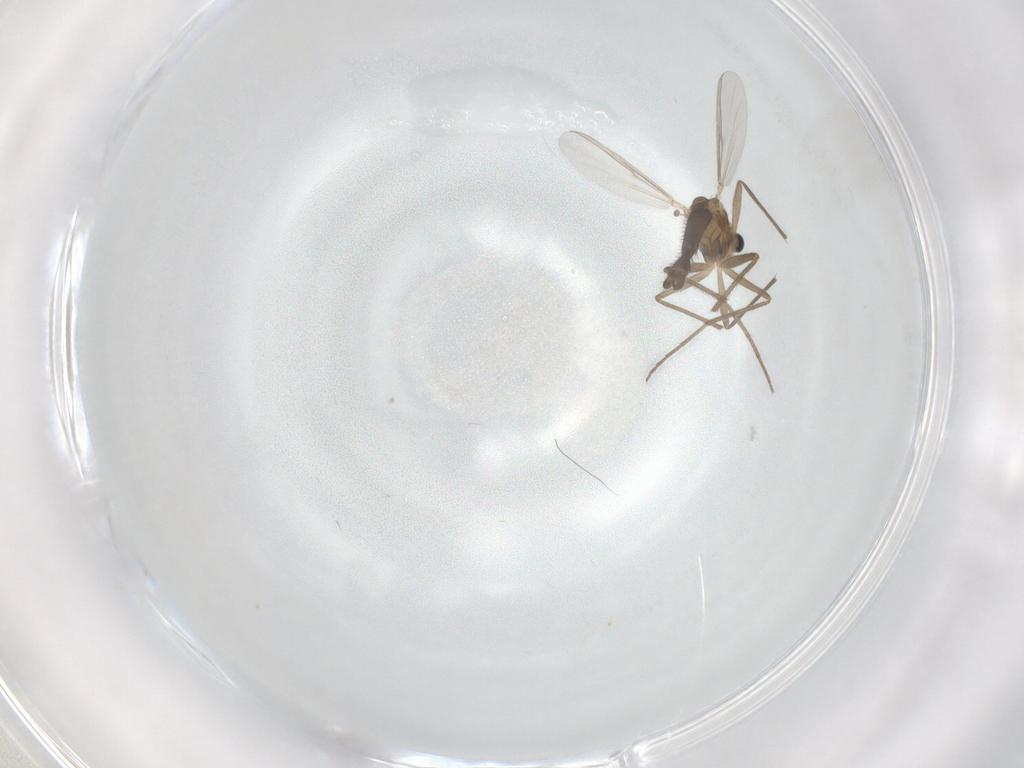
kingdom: Animalia
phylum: Arthropoda
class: Insecta
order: Diptera
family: Chironomidae
